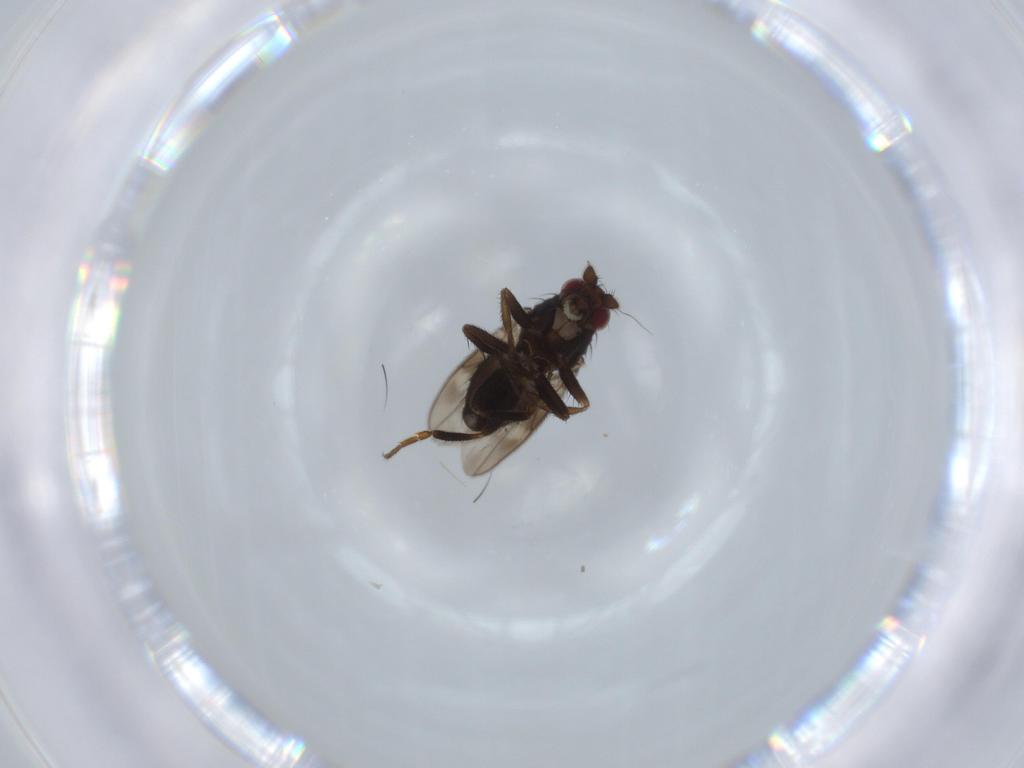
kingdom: Animalia
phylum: Arthropoda
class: Insecta
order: Diptera
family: Sphaeroceridae
